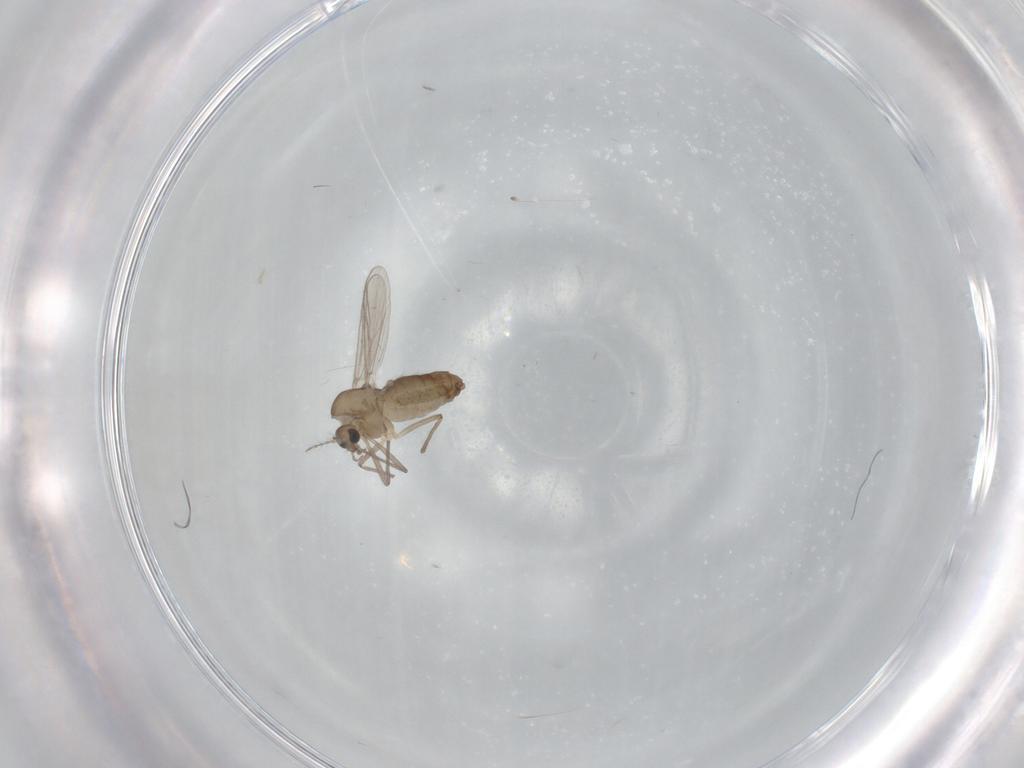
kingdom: Animalia
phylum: Arthropoda
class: Insecta
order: Diptera
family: Chironomidae
